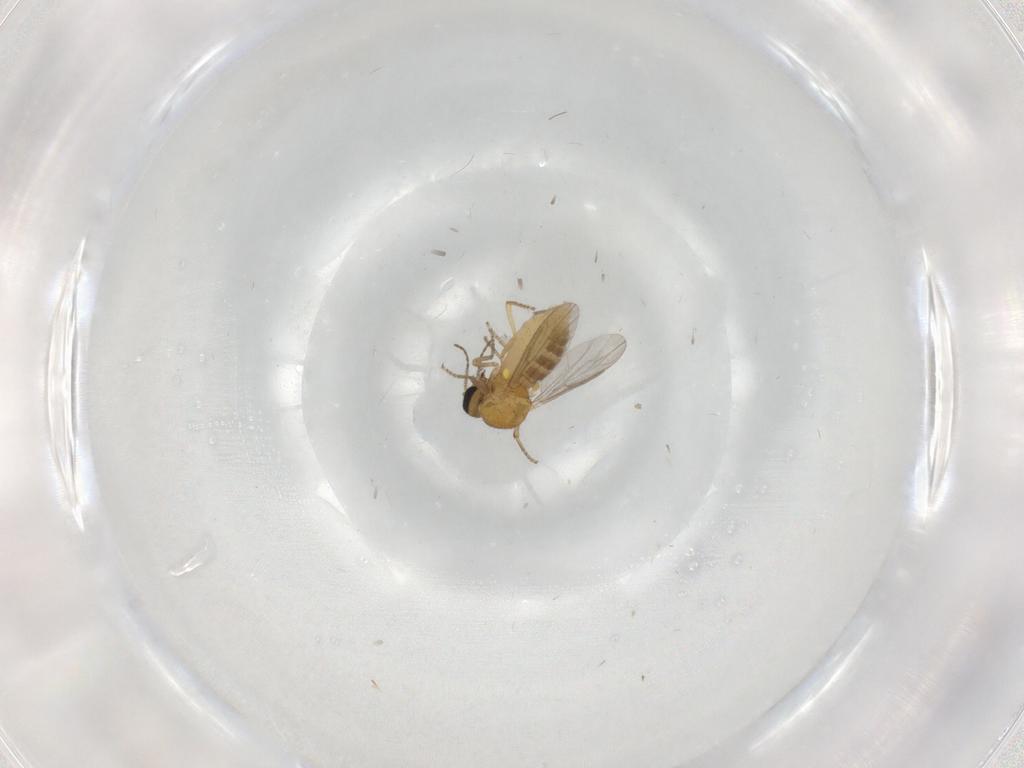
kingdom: Animalia
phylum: Arthropoda
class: Insecta
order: Diptera
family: Ceratopogonidae
